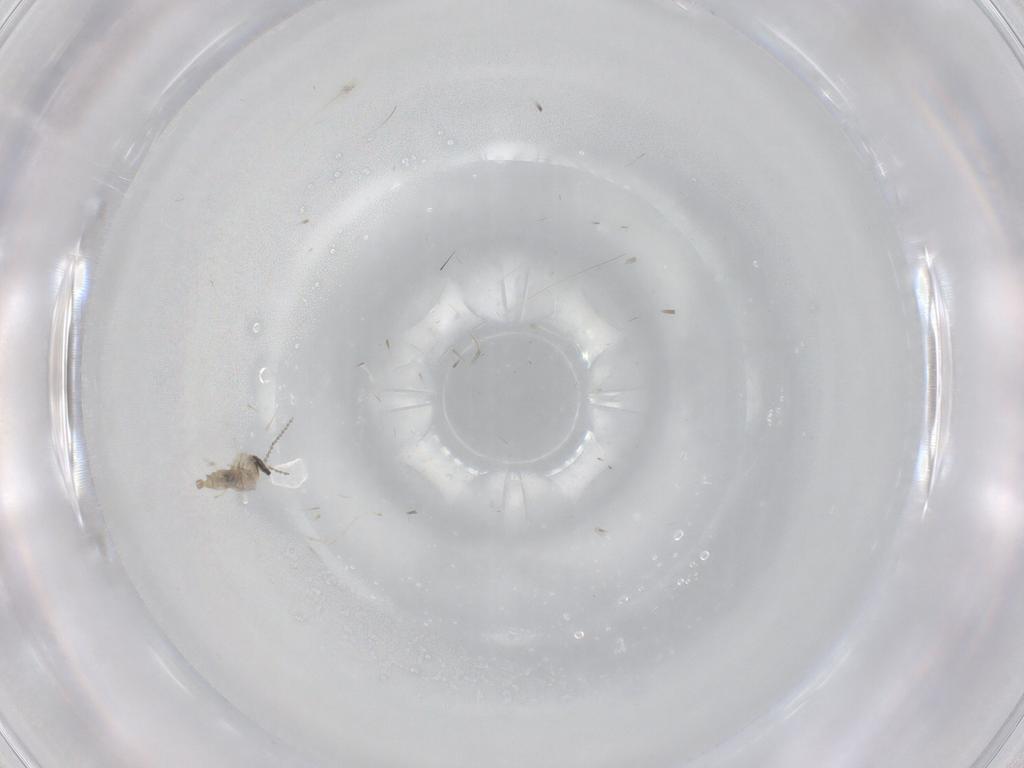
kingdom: Animalia
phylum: Arthropoda
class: Insecta
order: Diptera
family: Cecidomyiidae
